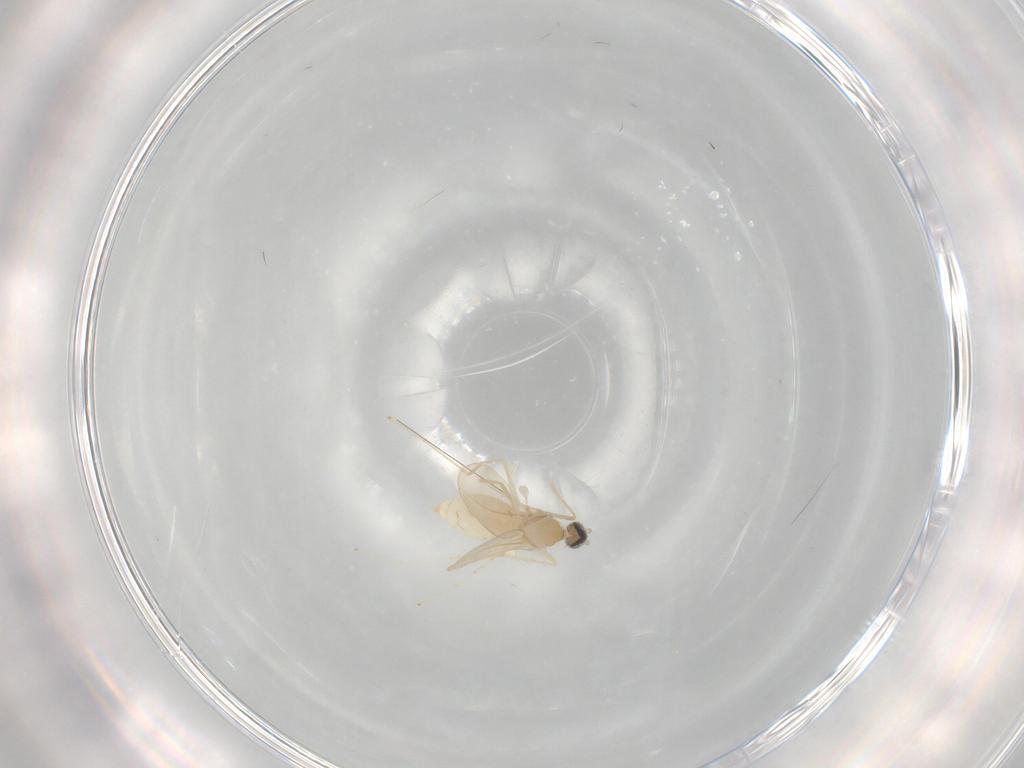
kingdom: Animalia
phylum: Arthropoda
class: Insecta
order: Diptera
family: Cecidomyiidae
